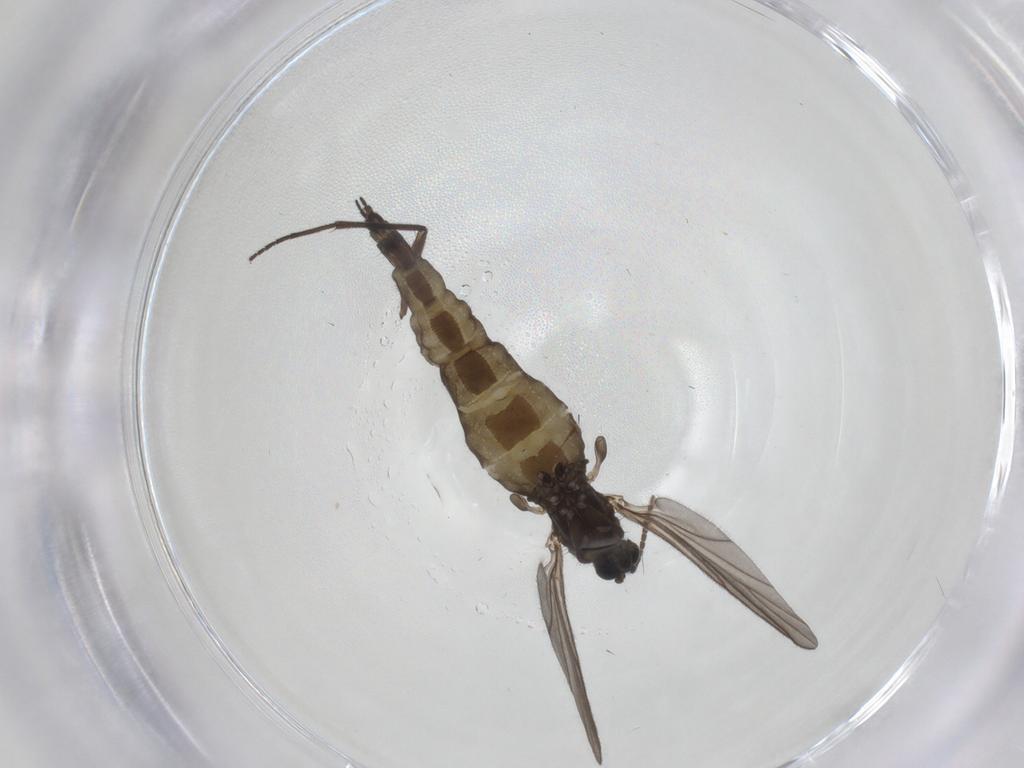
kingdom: Animalia
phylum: Arthropoda
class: Insecta
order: Diptera
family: Sciaridae
